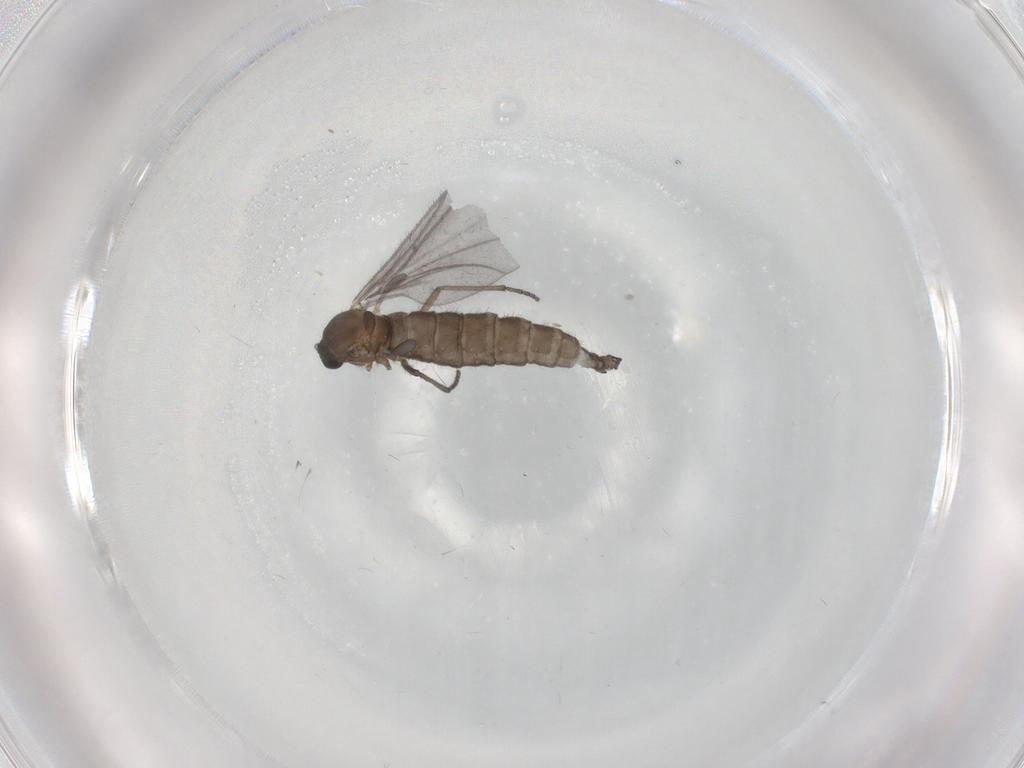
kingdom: Animalia
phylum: Arthropoda
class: Insecta
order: Diptera
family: Sciaridae
